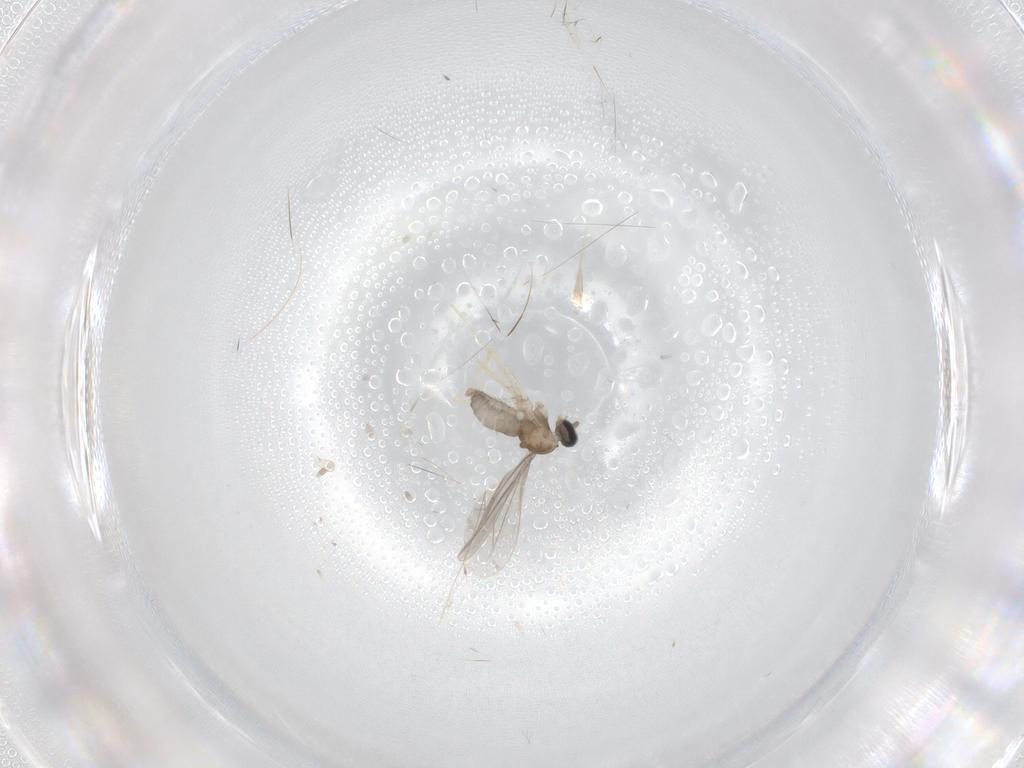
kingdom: Animalia
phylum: Arthropoda
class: Insecta
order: Diptera
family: Cecidomyiidae
